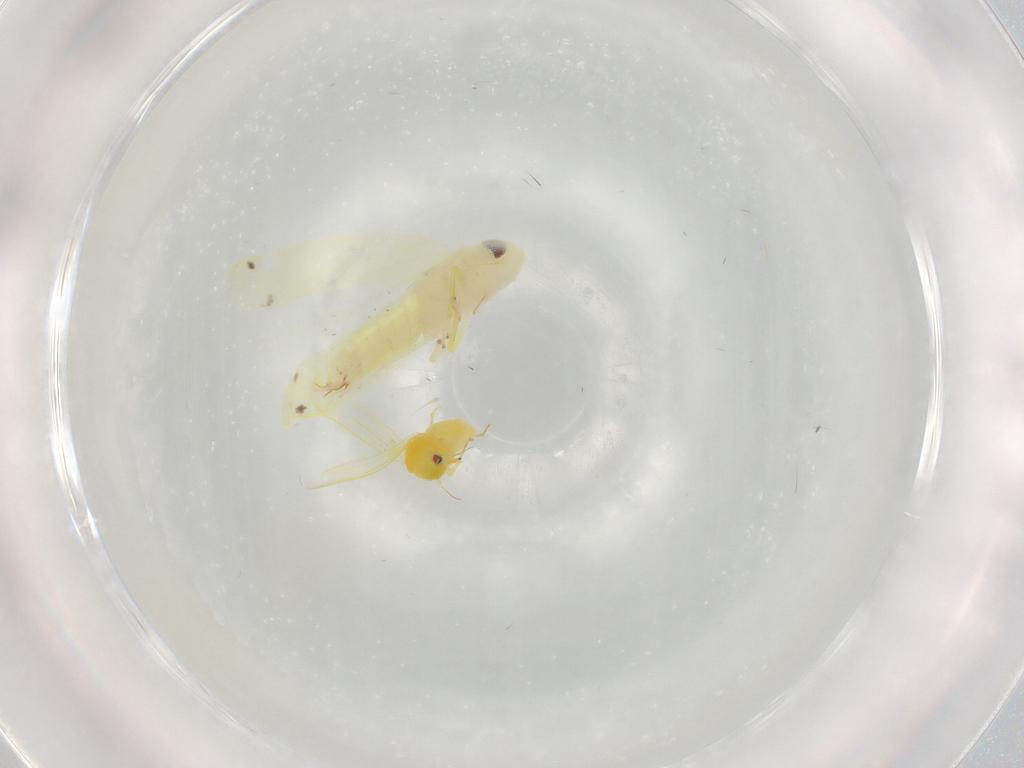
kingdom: Animalia
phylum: Arthropoda
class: Insecta
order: Hemiptera
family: Aleyrodidae
